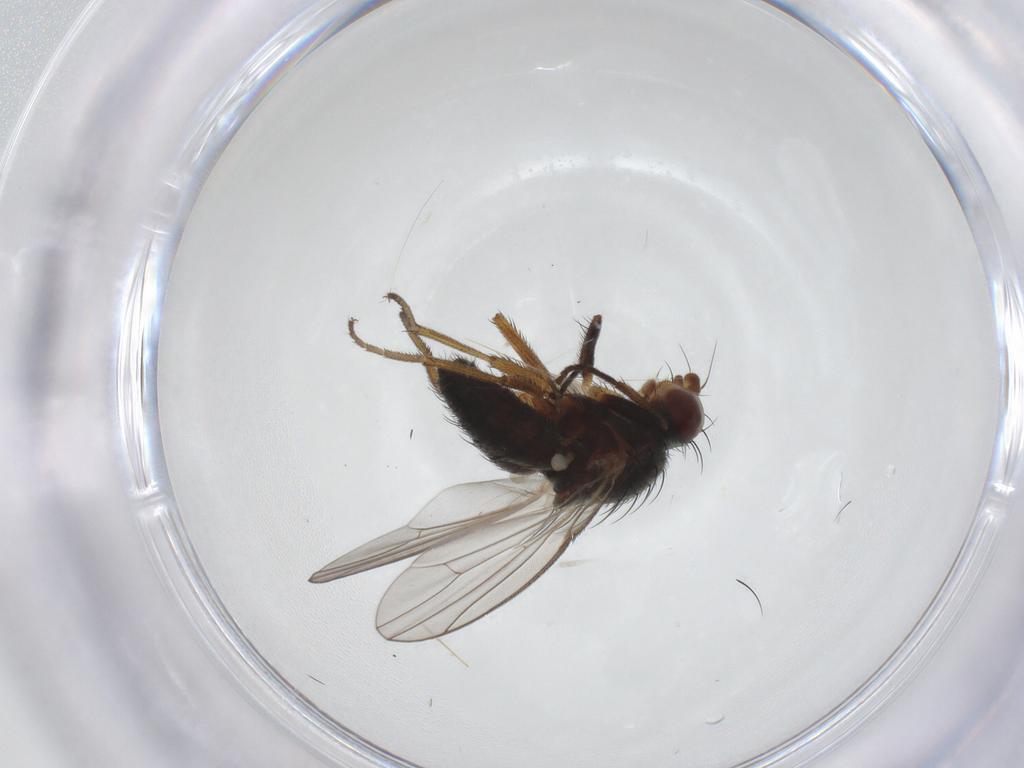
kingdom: Animalia
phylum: Arthropoda
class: Insecta
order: Diptera
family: Heleomyzidae
